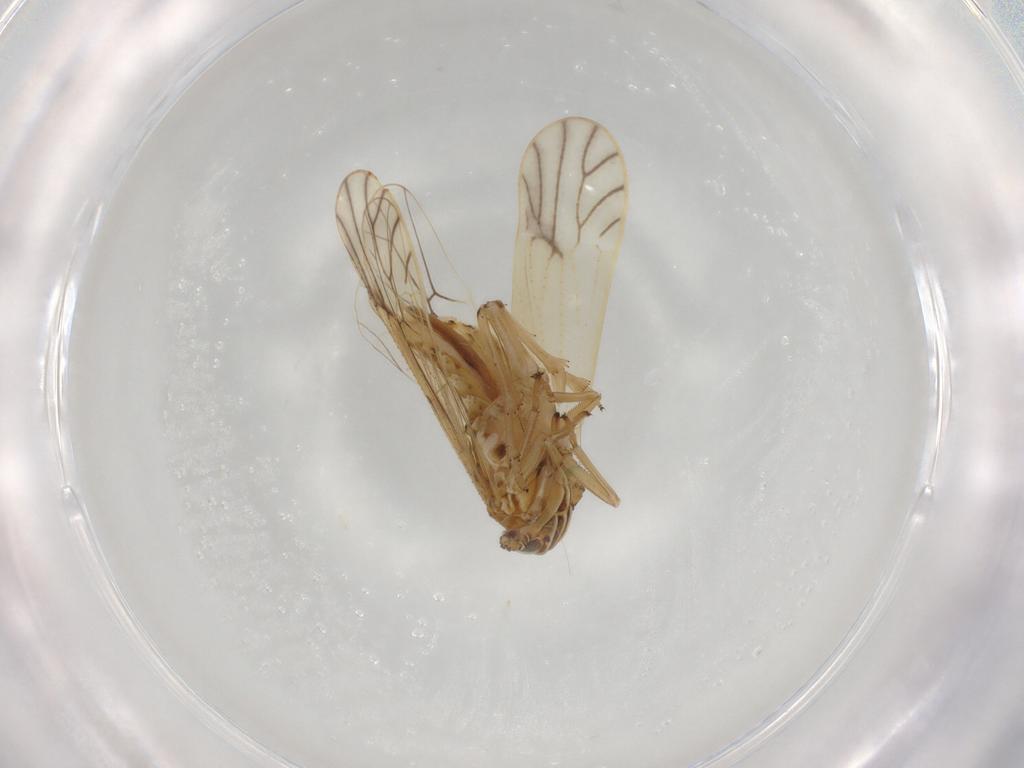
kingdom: Animalia
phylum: Arthropoda
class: Insecta
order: Hemiptera
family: Delphacidae
